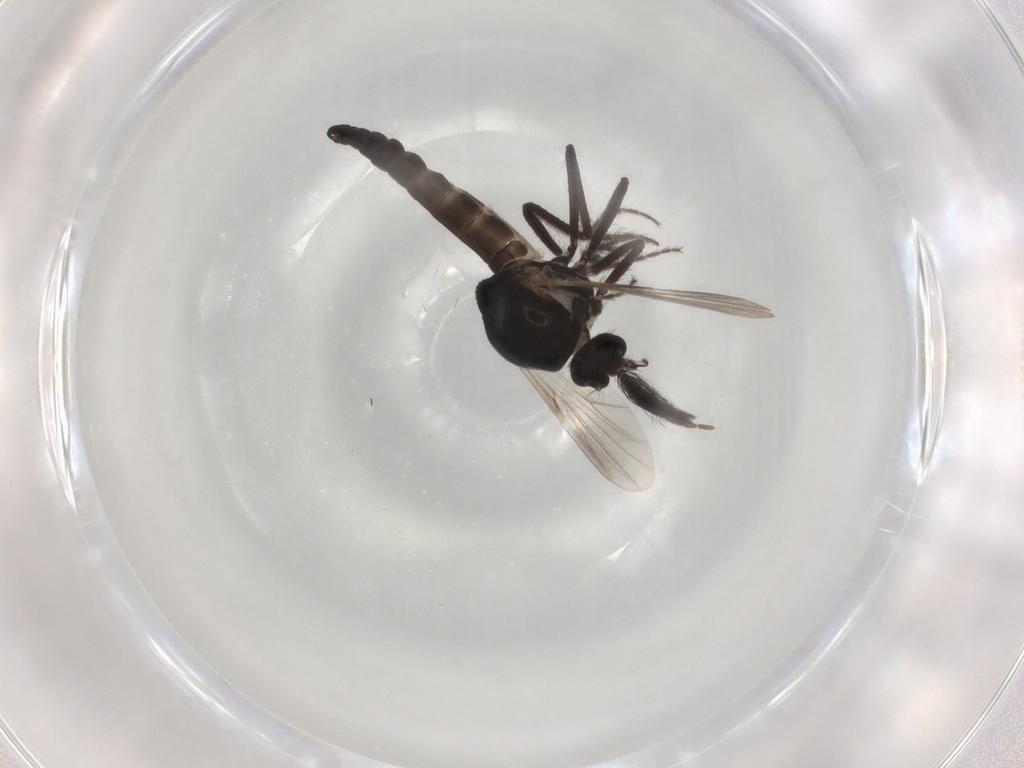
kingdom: Animalia
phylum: Arthropoda
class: Insecta
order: Diptera
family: Ceratopogonidae
